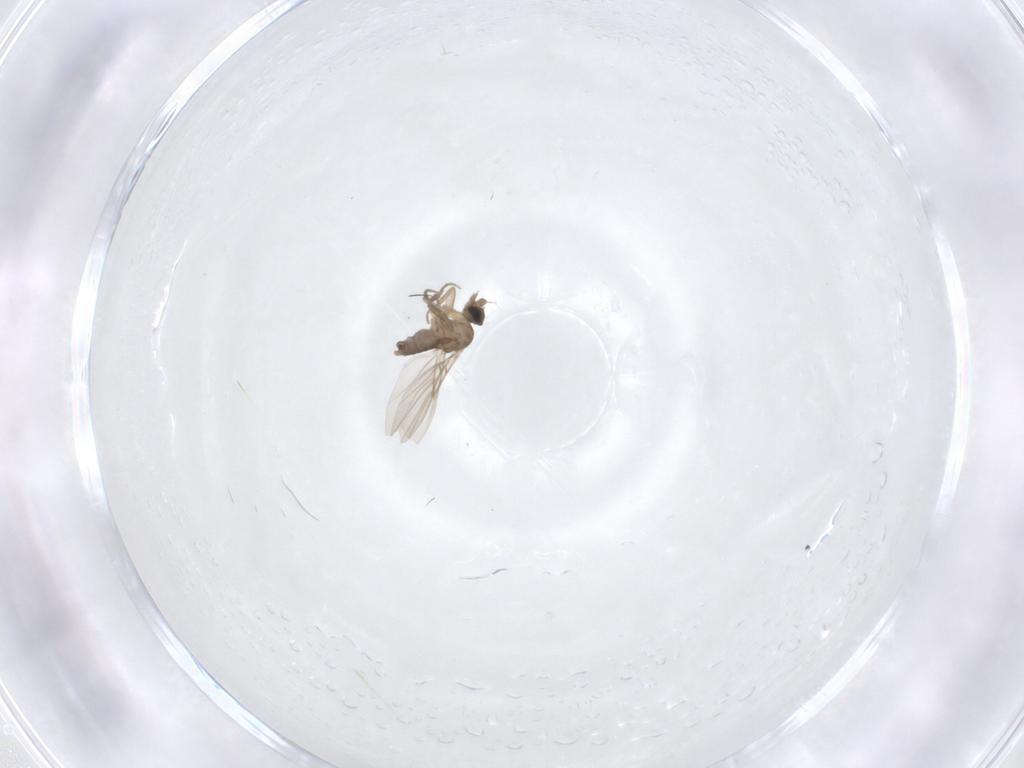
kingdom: Animalia
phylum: Arthropoda
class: Insecta
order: Diptera
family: Phoridae
